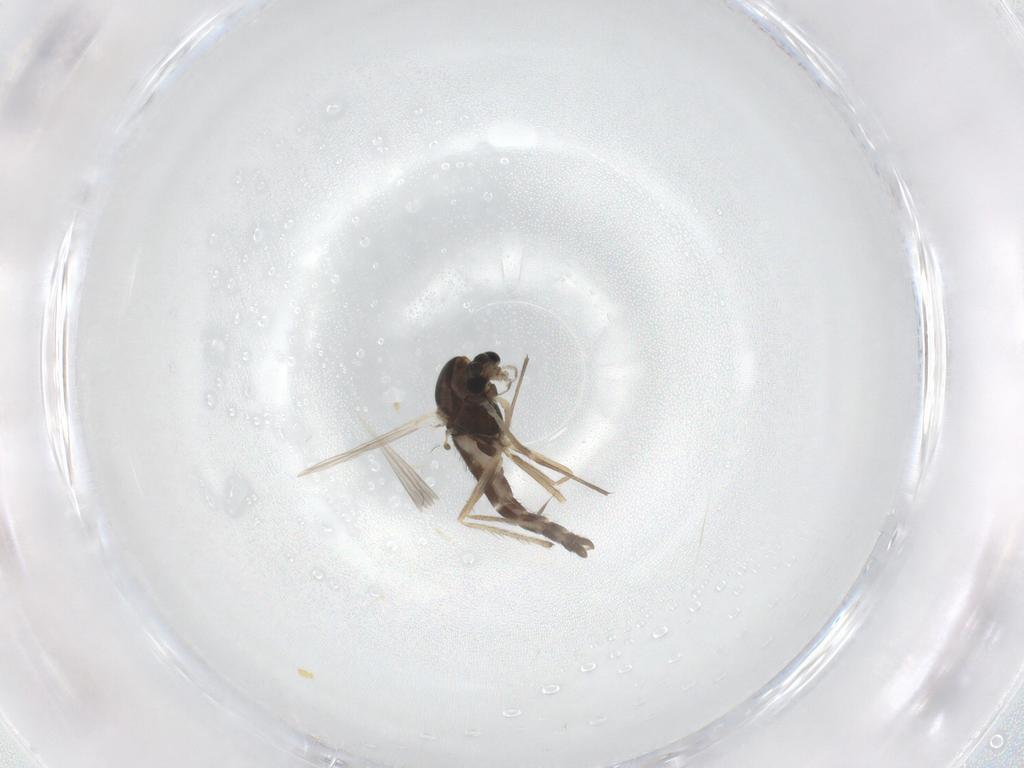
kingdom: Animalia
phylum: Arthropoda
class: Insecta
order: Diptera
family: Chironomidae
